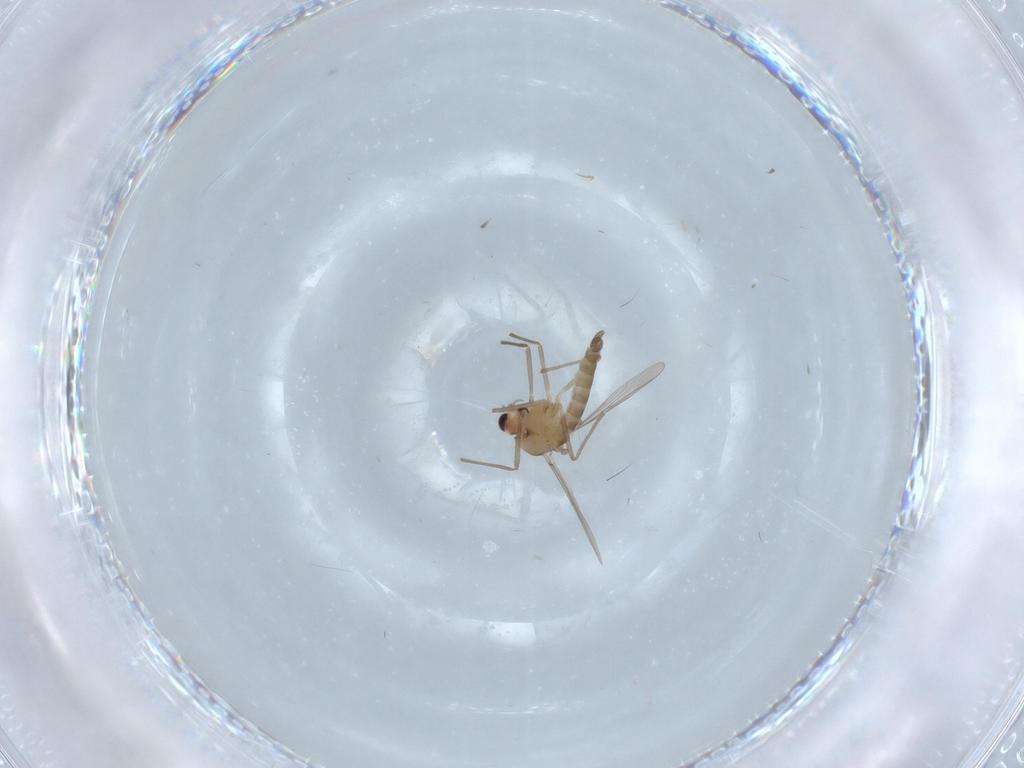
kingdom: Animalia
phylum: Arthropoda
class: Insecta
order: Diptera
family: Chironomidae
